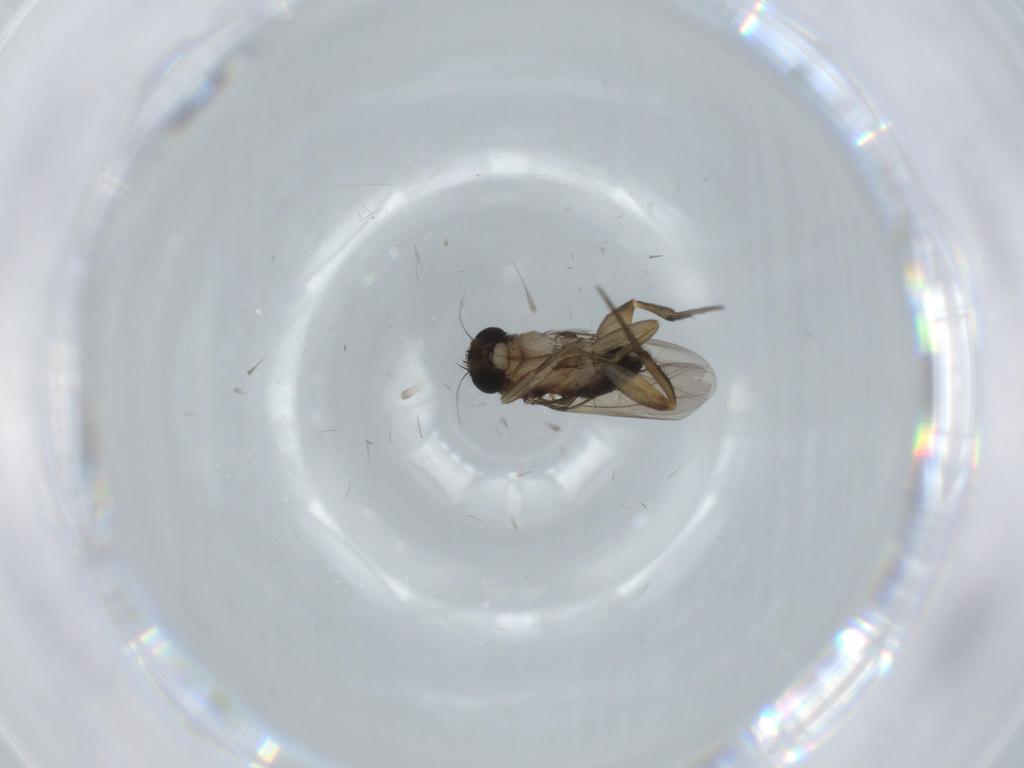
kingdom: Animalia
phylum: Arthropoda
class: Insecta
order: Diptera
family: Phoridae
